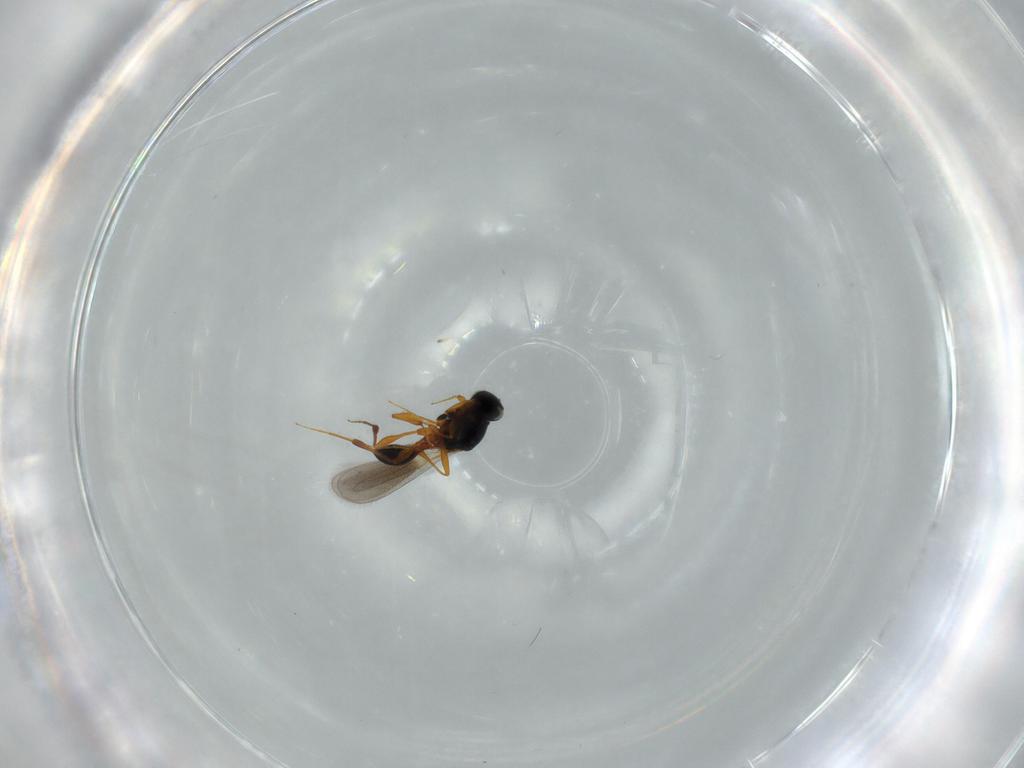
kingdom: Animalia
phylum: Arthropoda
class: Insecta
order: Hymenoptera
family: Platygastridae
